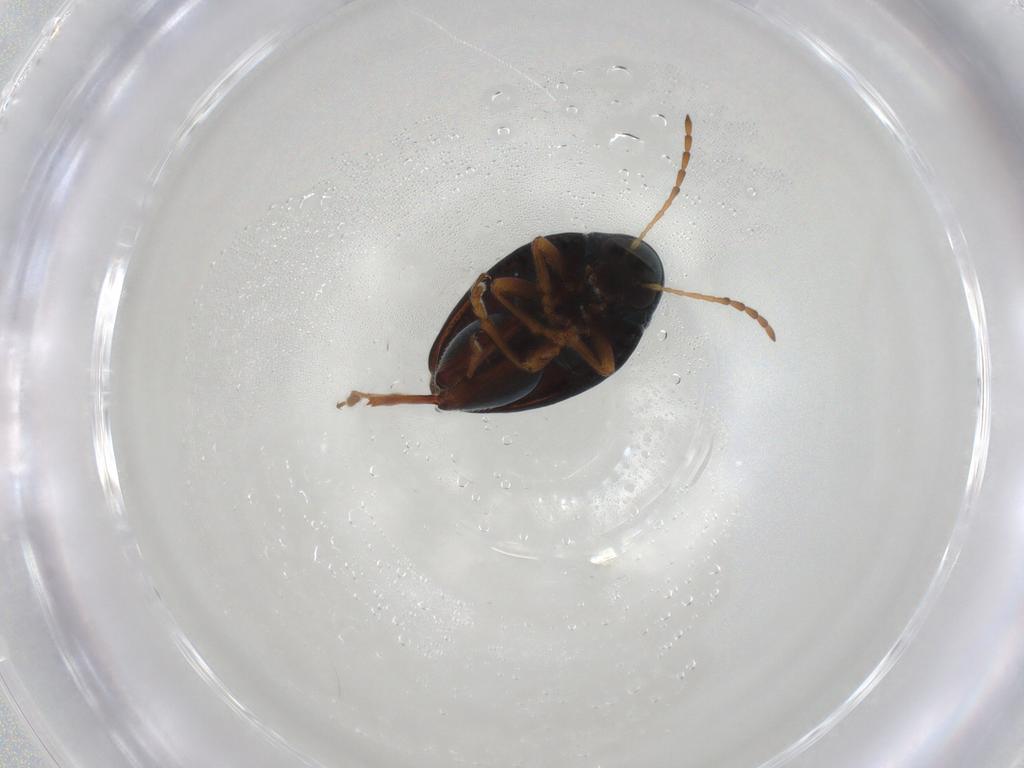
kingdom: Animalia
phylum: Arthropoda
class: Insecta
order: Coleoptera
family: Chrysomelidae
